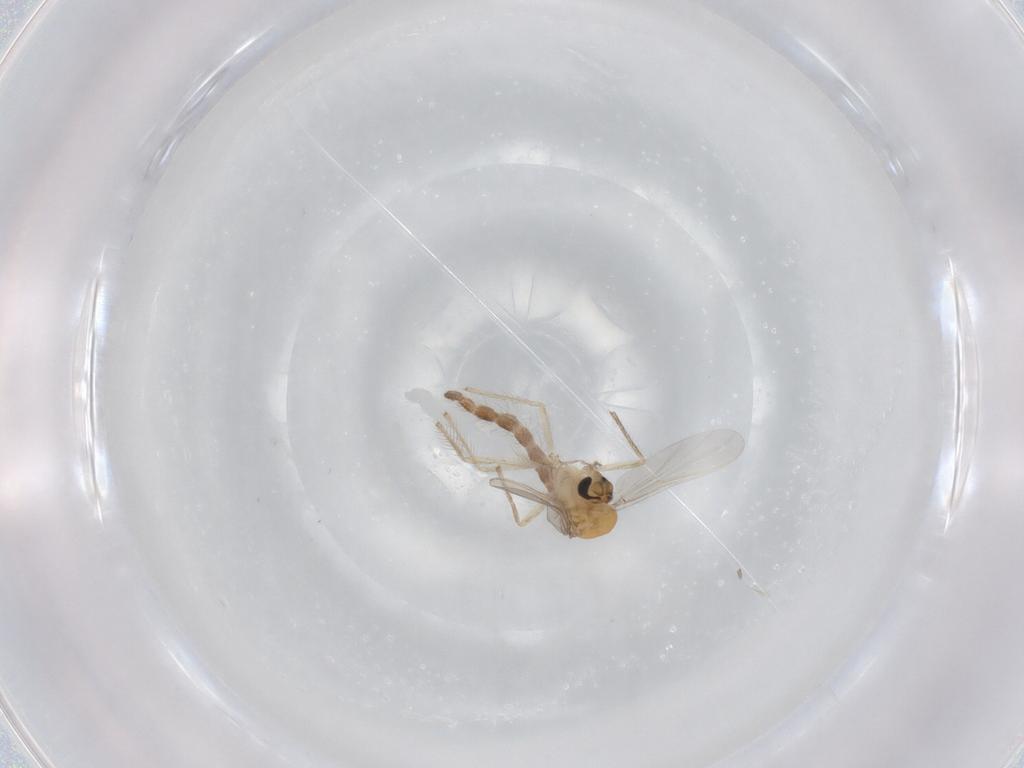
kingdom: Animalia
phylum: Arthropoda
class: Insecta
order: Diptera
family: Chironomidae
